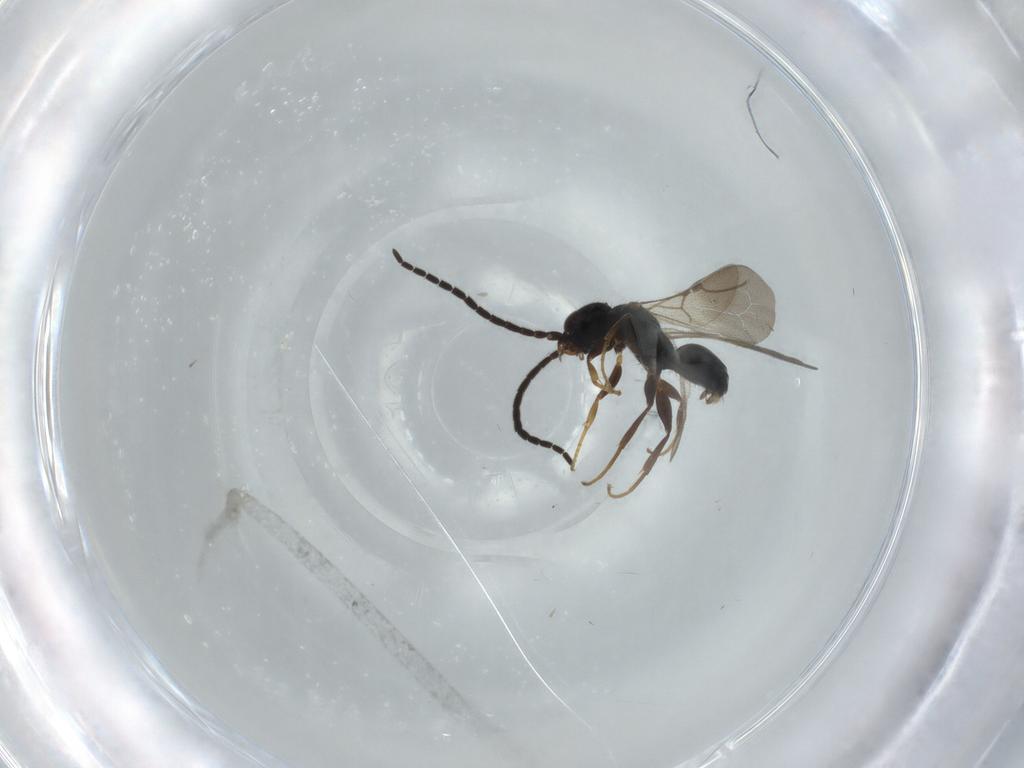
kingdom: Animalia
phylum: Arthropoda
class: Insecta
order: Hymenoptera
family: Bethylidae
